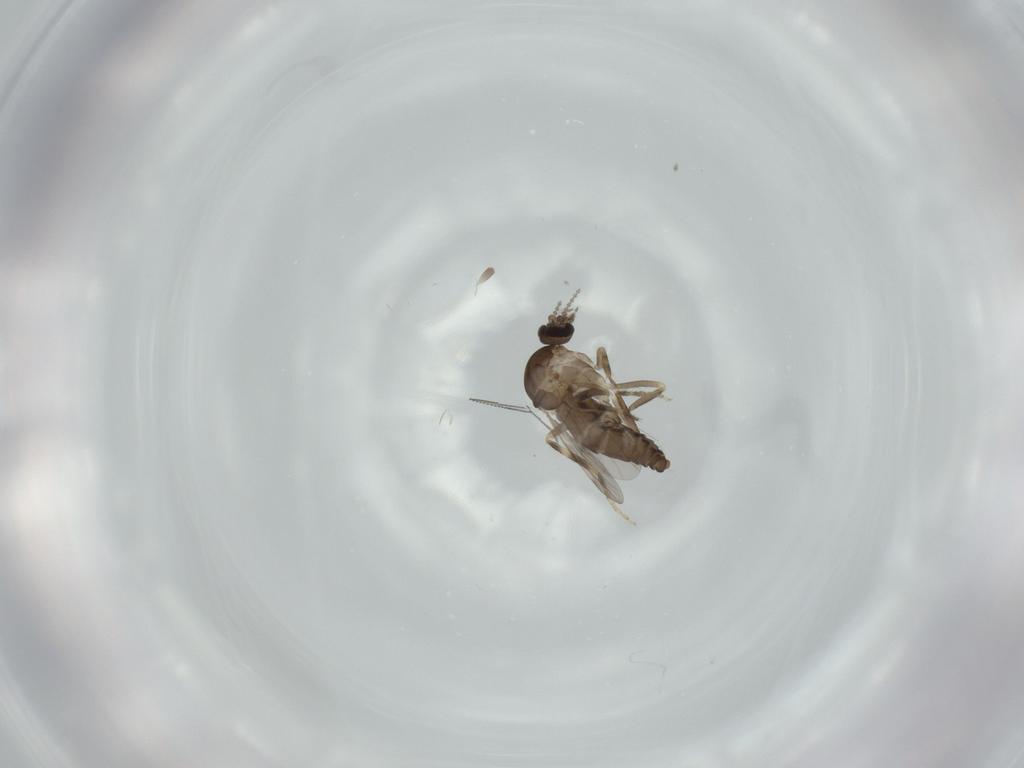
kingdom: Animalia
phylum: Arthropoda
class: Insecta
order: Diptera
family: Ceratopogonidae
